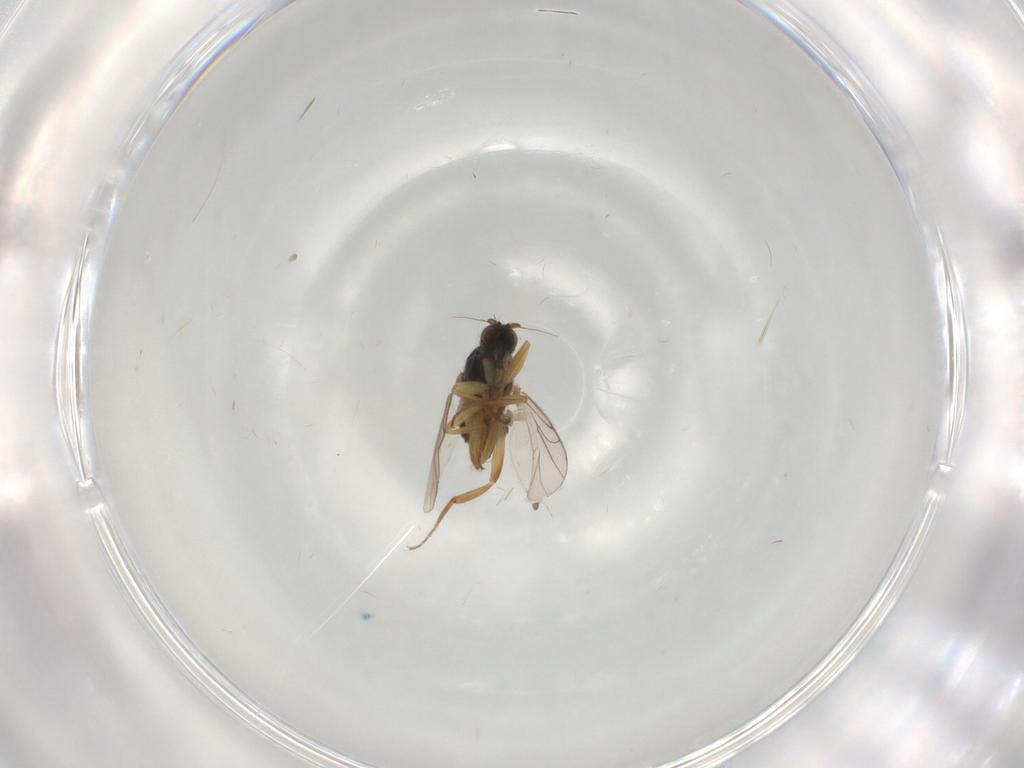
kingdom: Animalia
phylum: Arthropoda
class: Insecta
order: Diptera
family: Hybotidae
